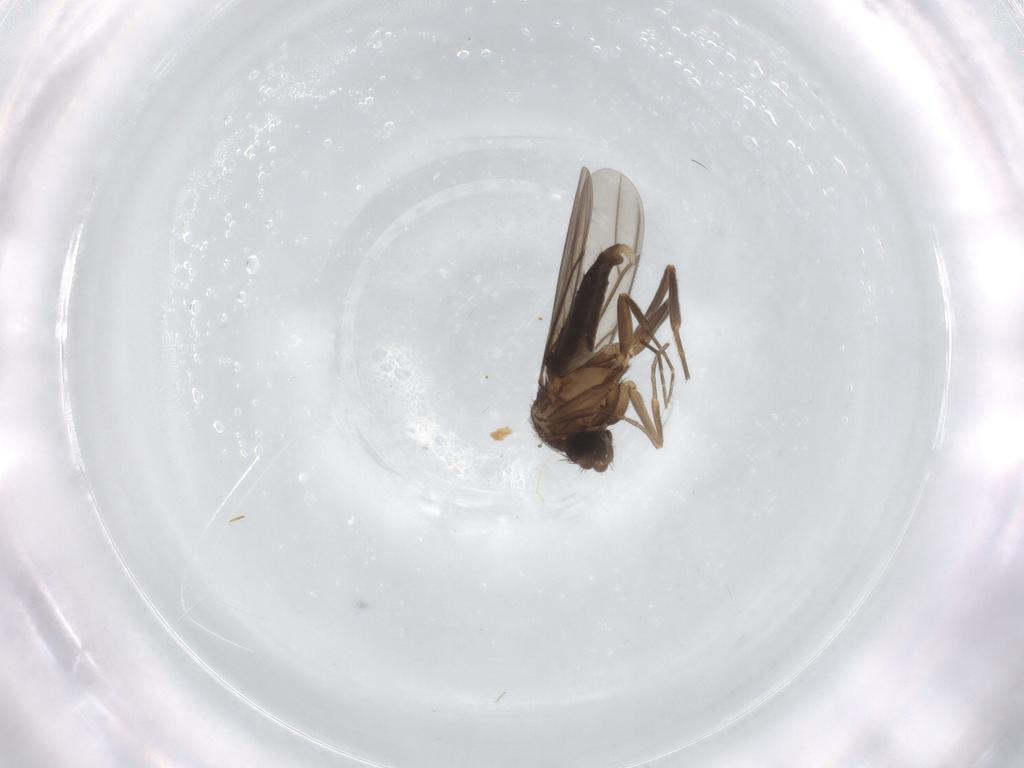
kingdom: Animalia
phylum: Arthropoda
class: Insecta
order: Diptera
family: Cecidomyiidae
